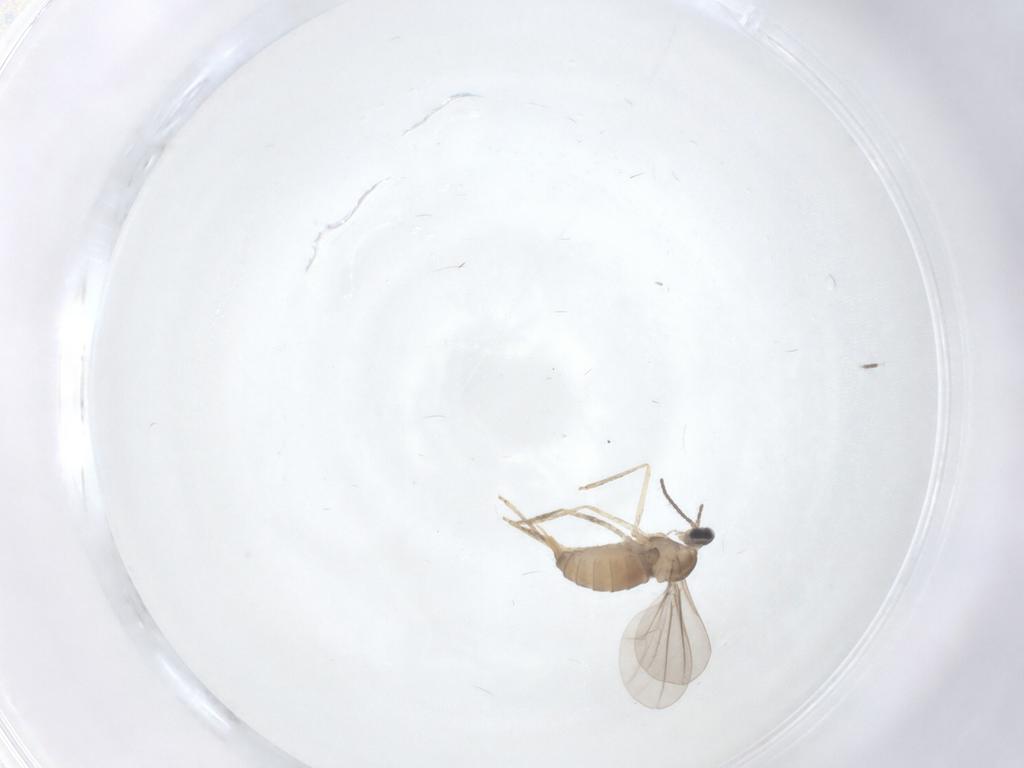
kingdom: Animalia
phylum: Arthropoda
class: Insecta
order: Diptera
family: Cecidomyiidae
